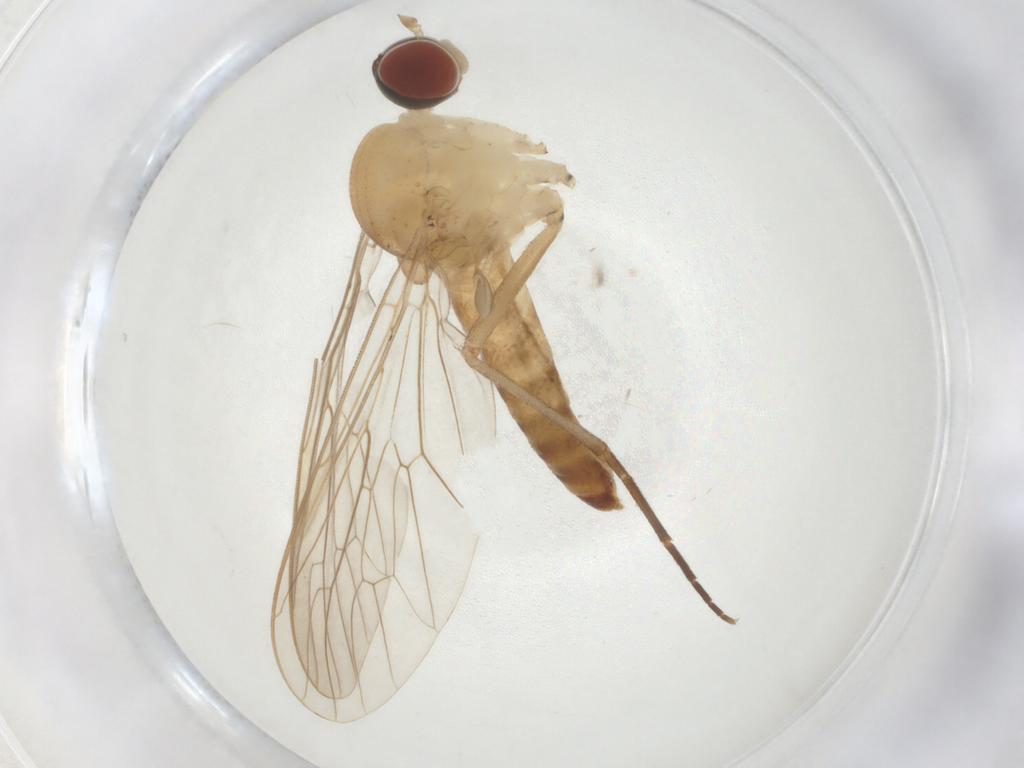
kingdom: Animalia
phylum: Arthropoda
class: Insecta
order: Diptera
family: Apsilocephalidae
